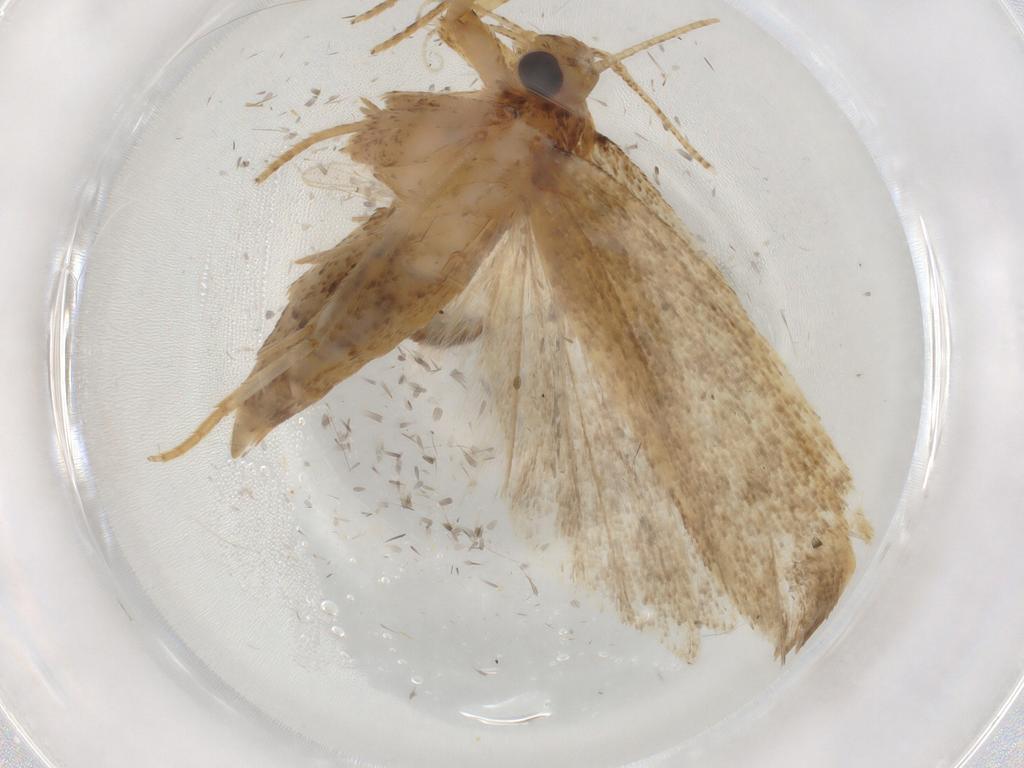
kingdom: Animalia
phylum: Arthropoda
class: Insecta
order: Lepidoptera
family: Autostichidae
